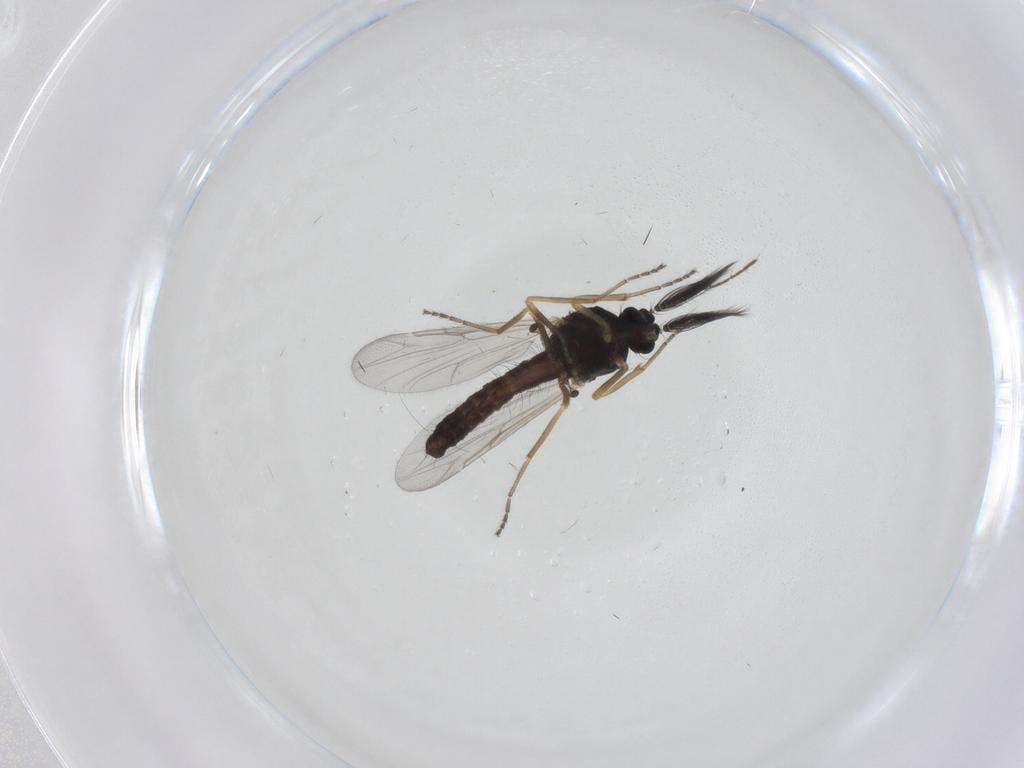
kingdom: Animalia
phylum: Arthropoda
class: Insecta
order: Diptera
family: Ceratopogonidae
